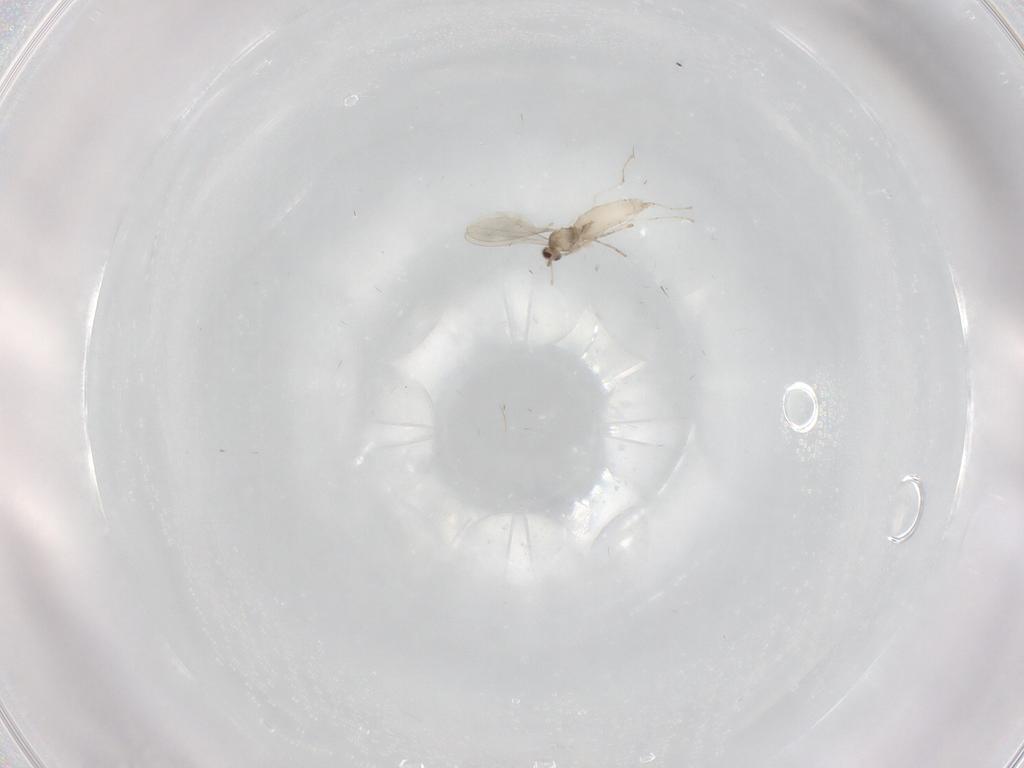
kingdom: Animalia
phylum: Arthropoda
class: Insecta
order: Diptera
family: Cecidomyiidae
